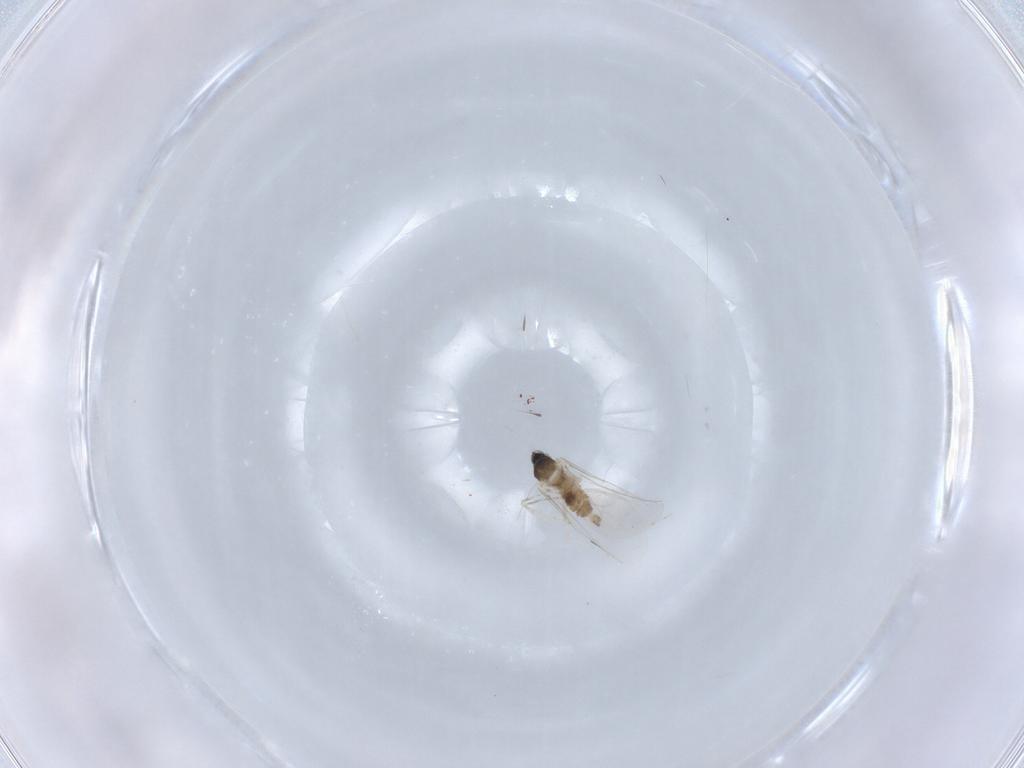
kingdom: Animalia
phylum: Arthropoda
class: Insecta
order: Diptera
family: Cecidomyiidae
